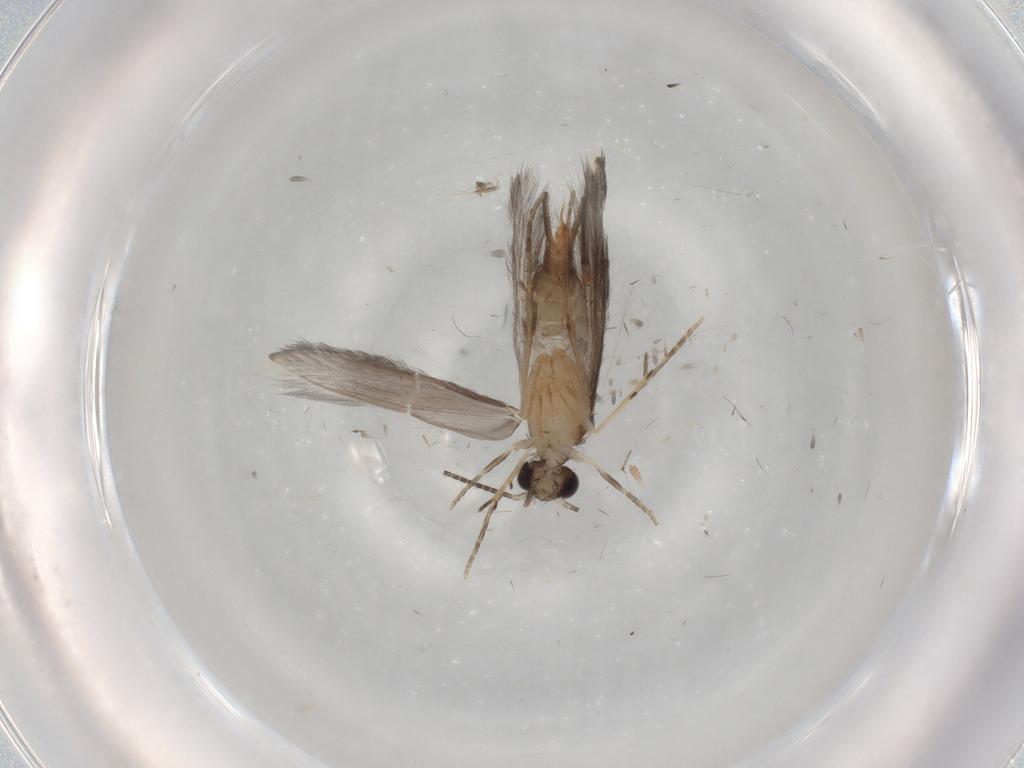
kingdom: Animalia
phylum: Arthropoda
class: Insecta
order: Trichoptera
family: Hydroptilidae
